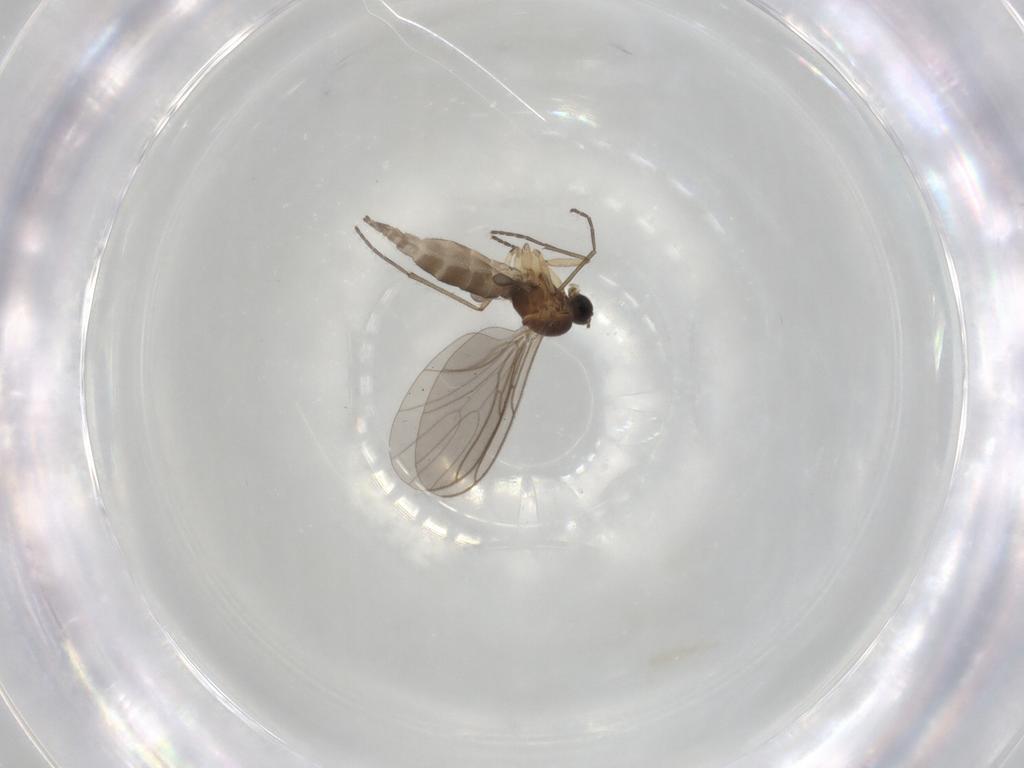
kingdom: Animalia
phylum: Arthropoda
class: Insecta
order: Diptera
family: Sciaridae
